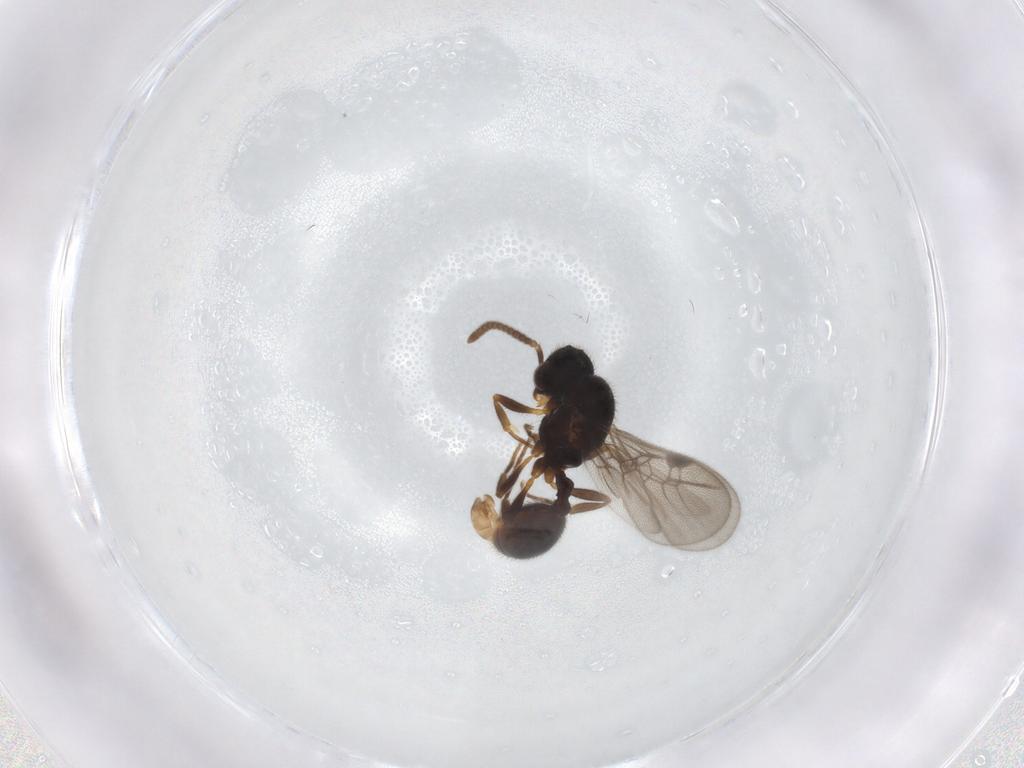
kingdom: Animalia
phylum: Arthropoda
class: Insecta
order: Hymenoptera
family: Formicidae
